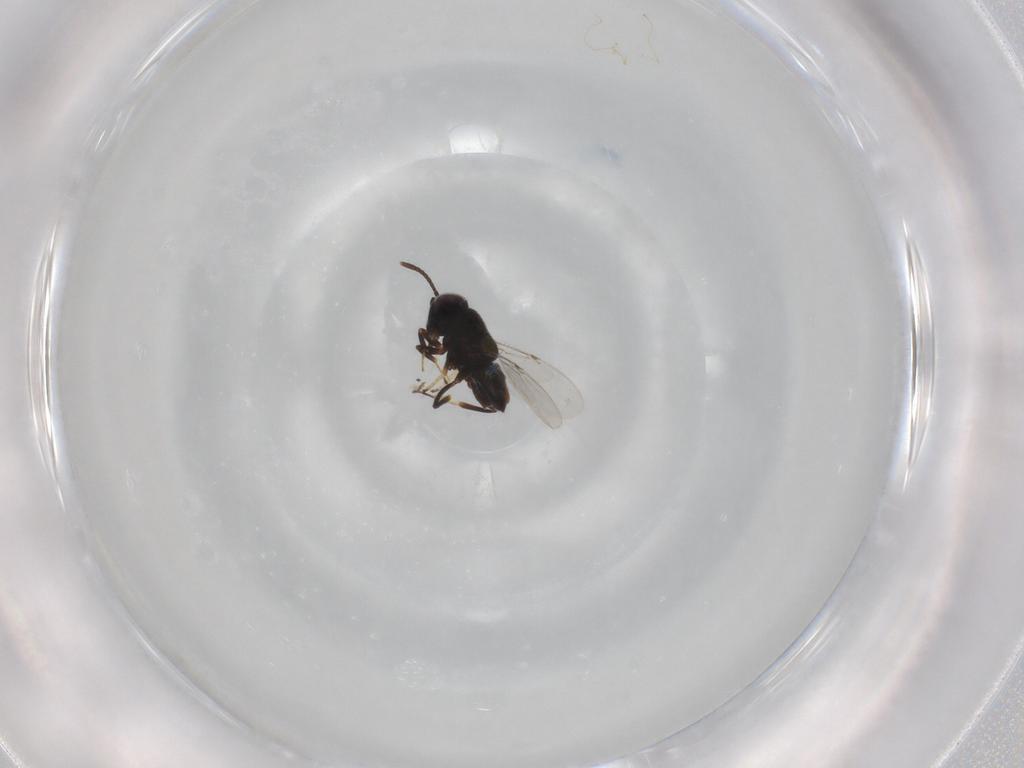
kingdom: Animalia
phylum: Arthropoda
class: Insecta
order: Hymenoptera
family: Encyrtidae
